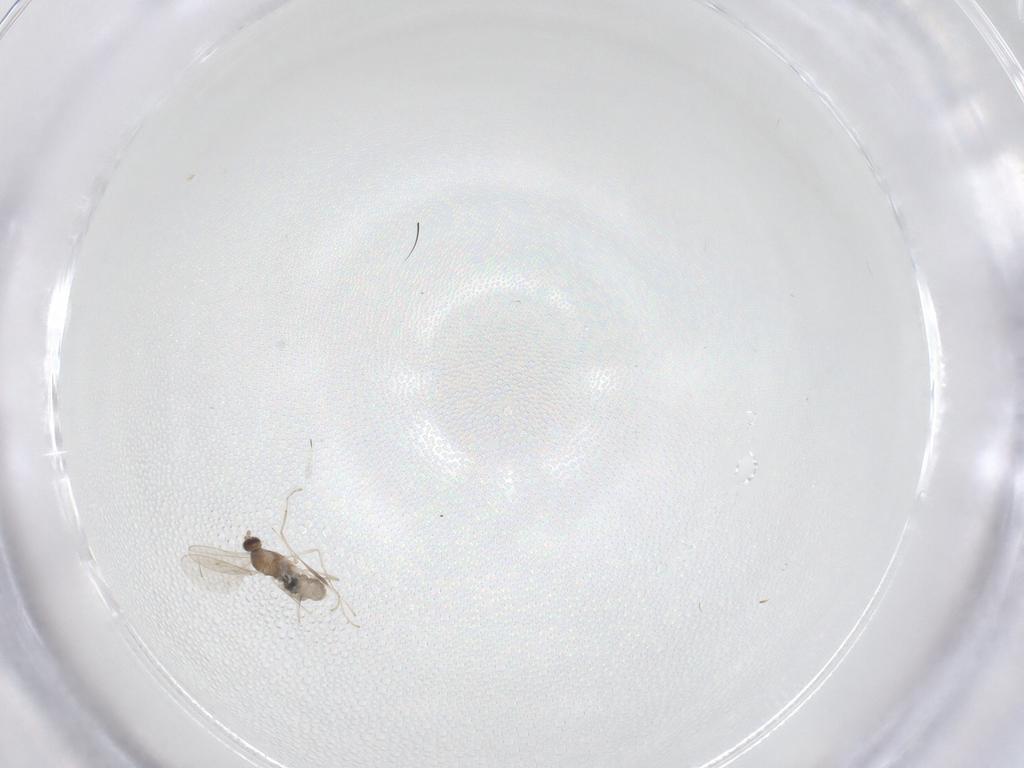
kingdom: Animalia
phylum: Arthropoda
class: Insecta
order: Diptera
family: Cecidomyiidae
